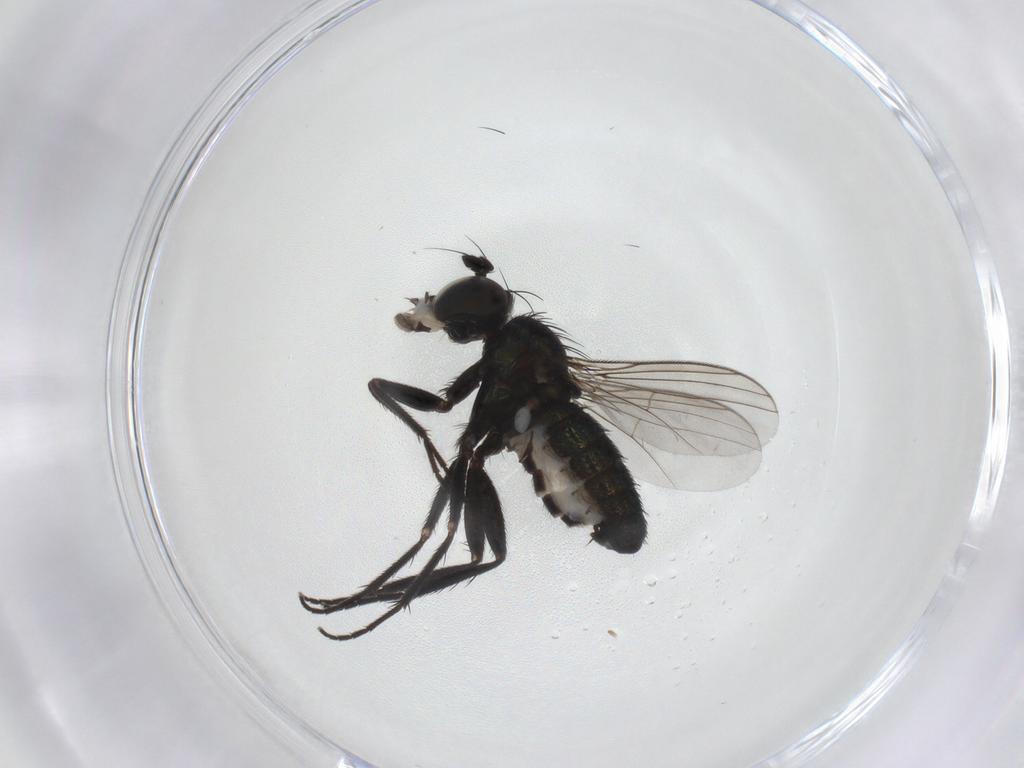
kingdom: Animalia
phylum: Arthropoda
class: Insecta
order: Diptera
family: Dolichopodidae
